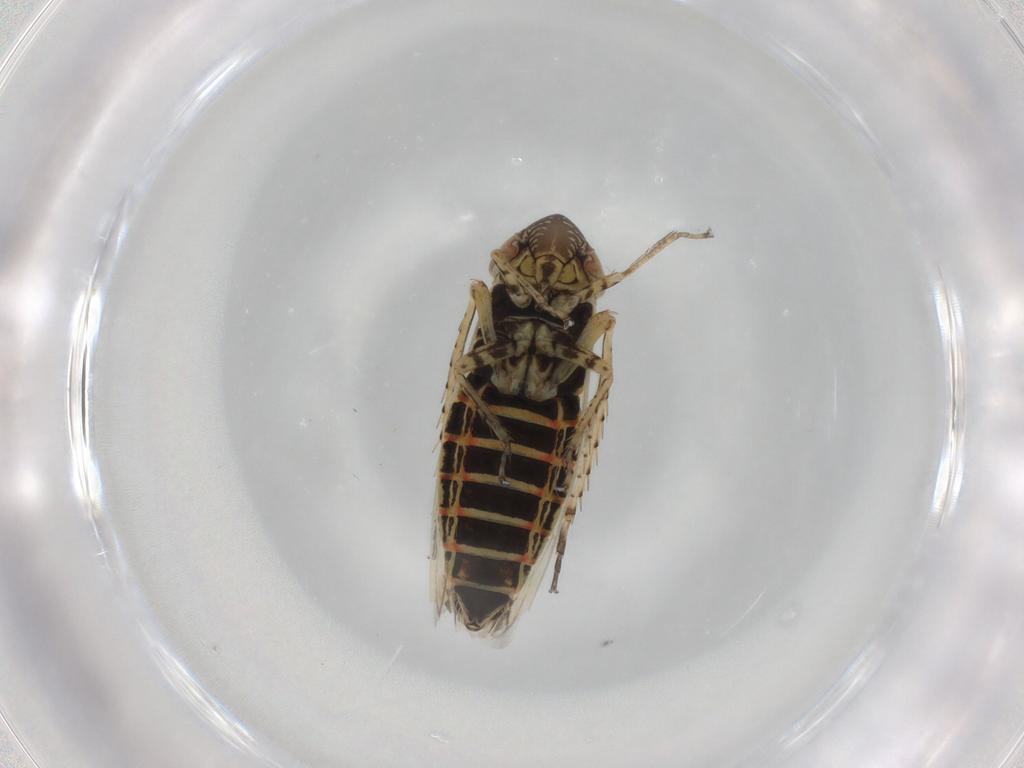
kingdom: Animalia
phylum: Arthropoda
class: Insecta
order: Hemiptera
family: Cicadellidae
